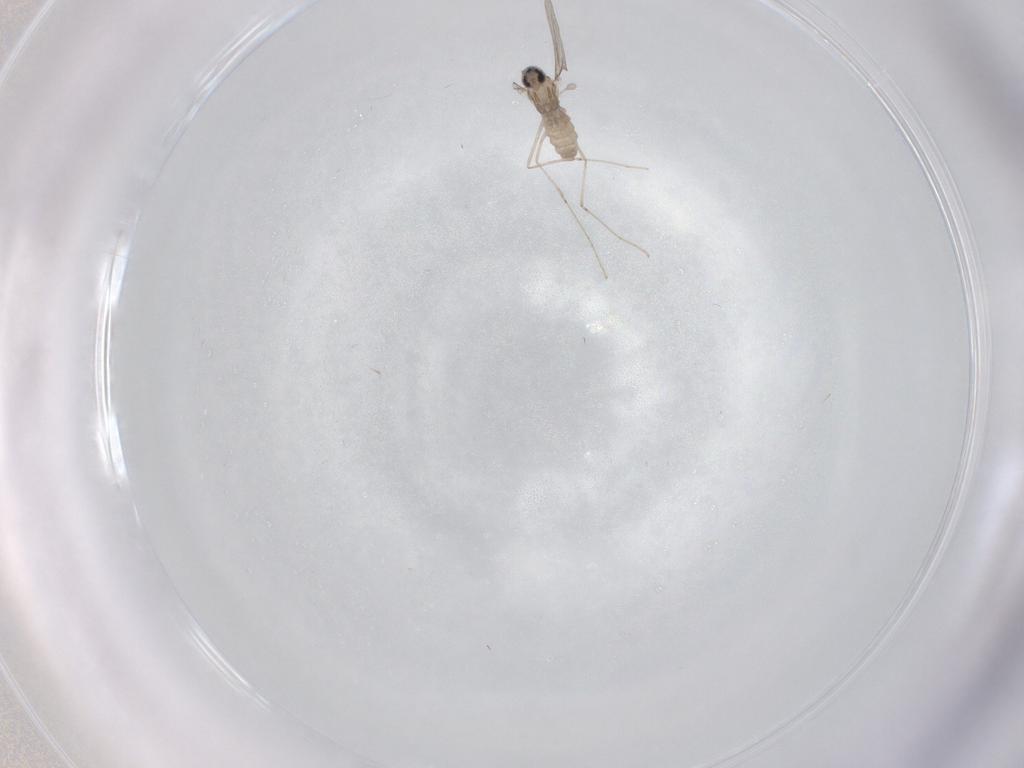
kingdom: Animalia
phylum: Arthropoda
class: Insecta
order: Diptera
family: Cecidomyiidae
